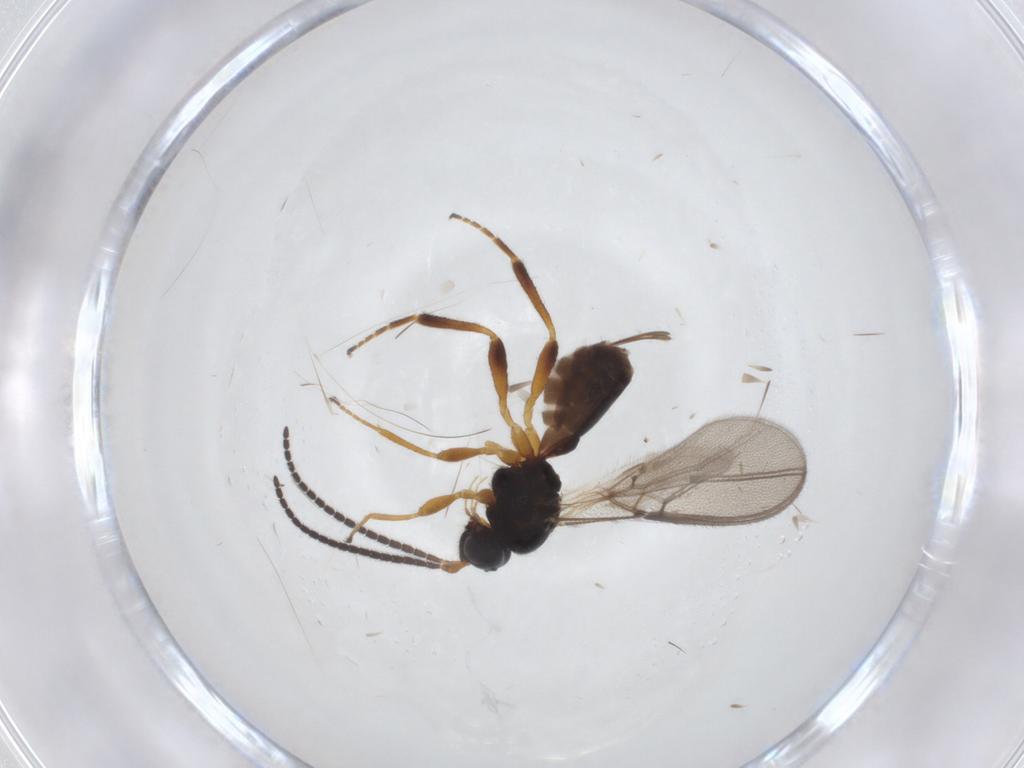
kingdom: Animalia
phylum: Arthropoda
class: Insecta
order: Hymenoptera
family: Braconidae
